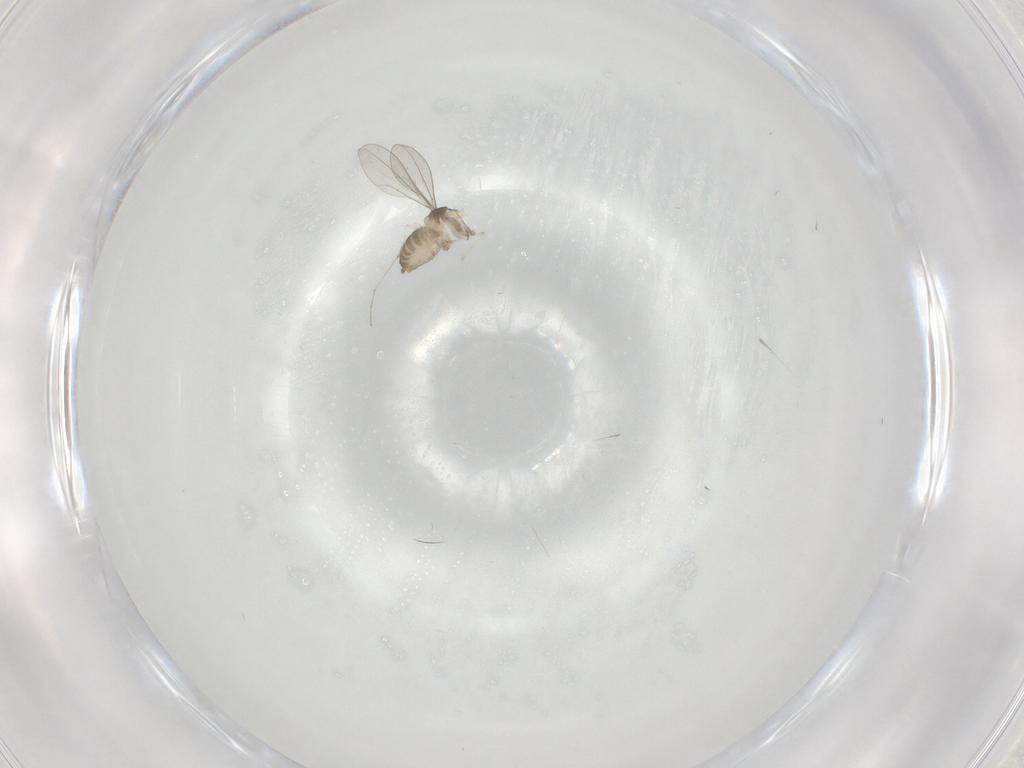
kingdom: Animalia
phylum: Arthropoda
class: Insecta
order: Diptera
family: Cecidomyiidae
